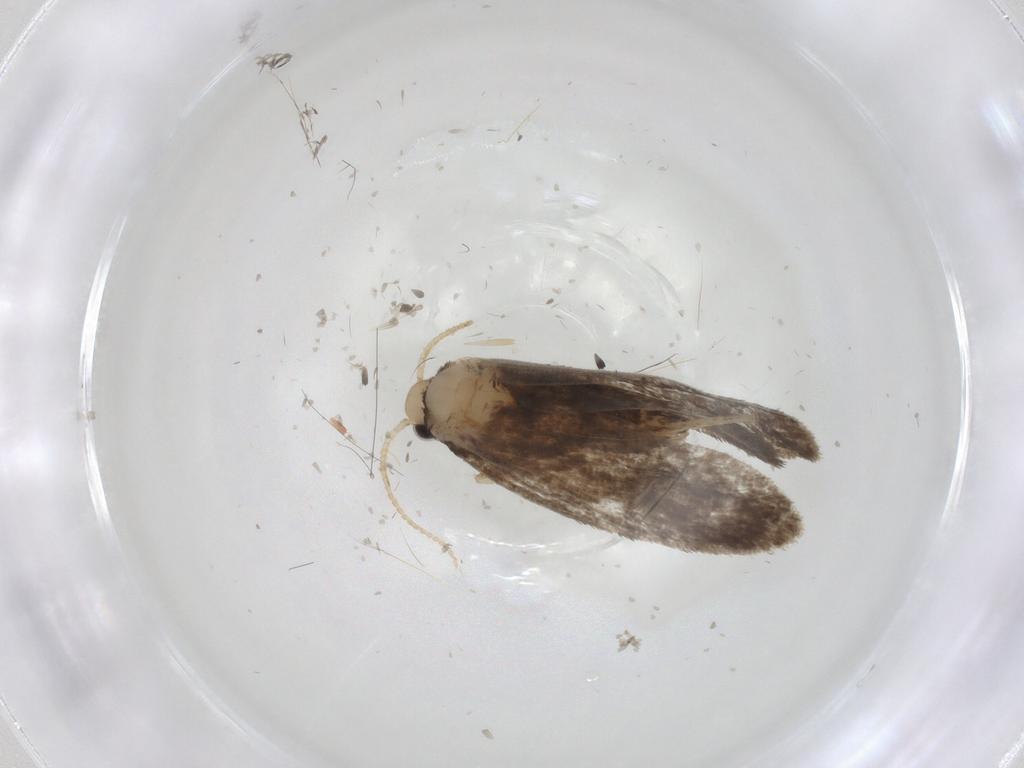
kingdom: Animalia
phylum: Arthropoda
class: Insecta
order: Lepidoptera
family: Psychidae
